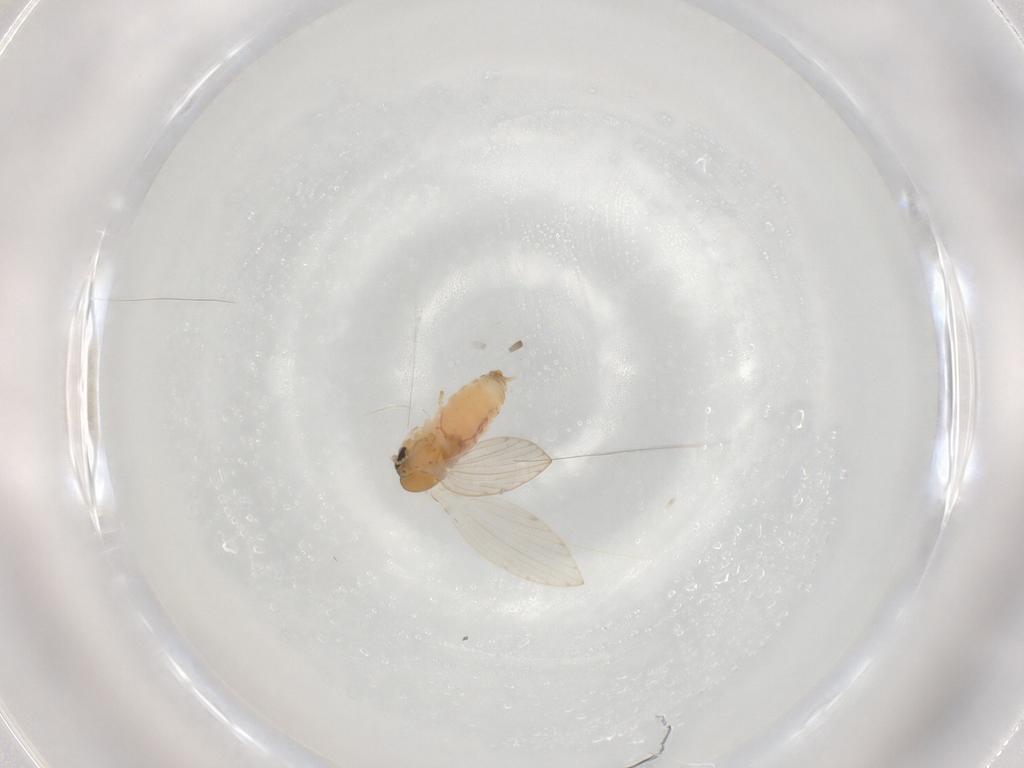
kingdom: Animalia
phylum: Arthropoda
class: Insecta
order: Diptera
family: Psychodidae
